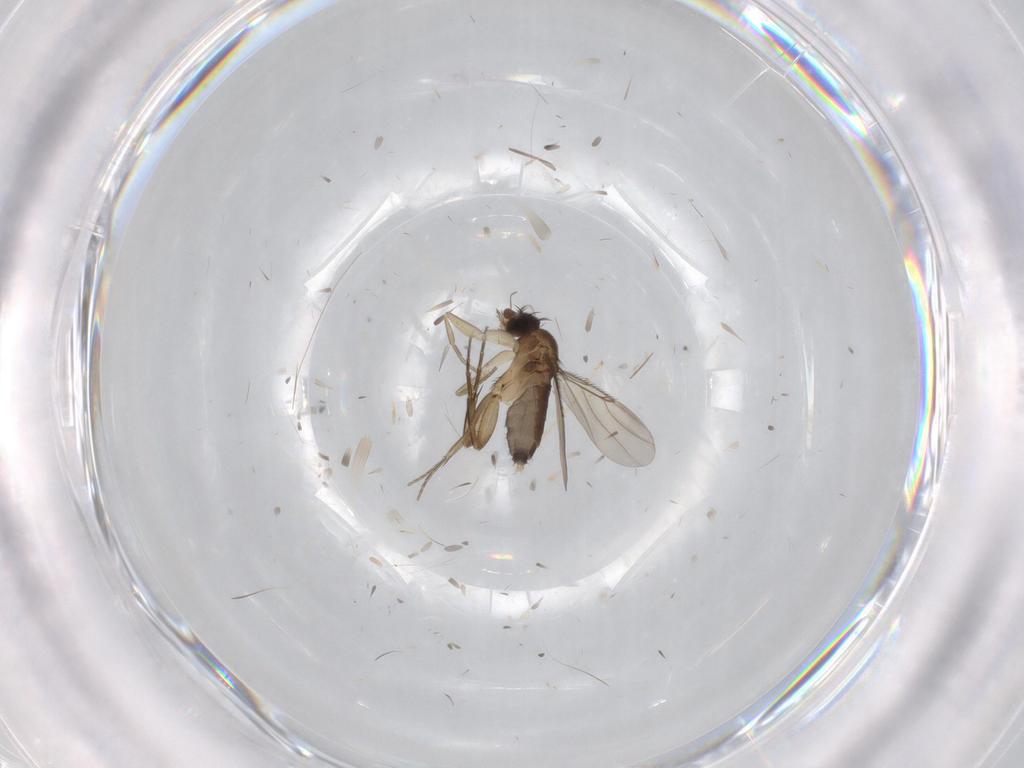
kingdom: Animalia
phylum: Arthropoda
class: Insecta
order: Diptera
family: Phoridae
